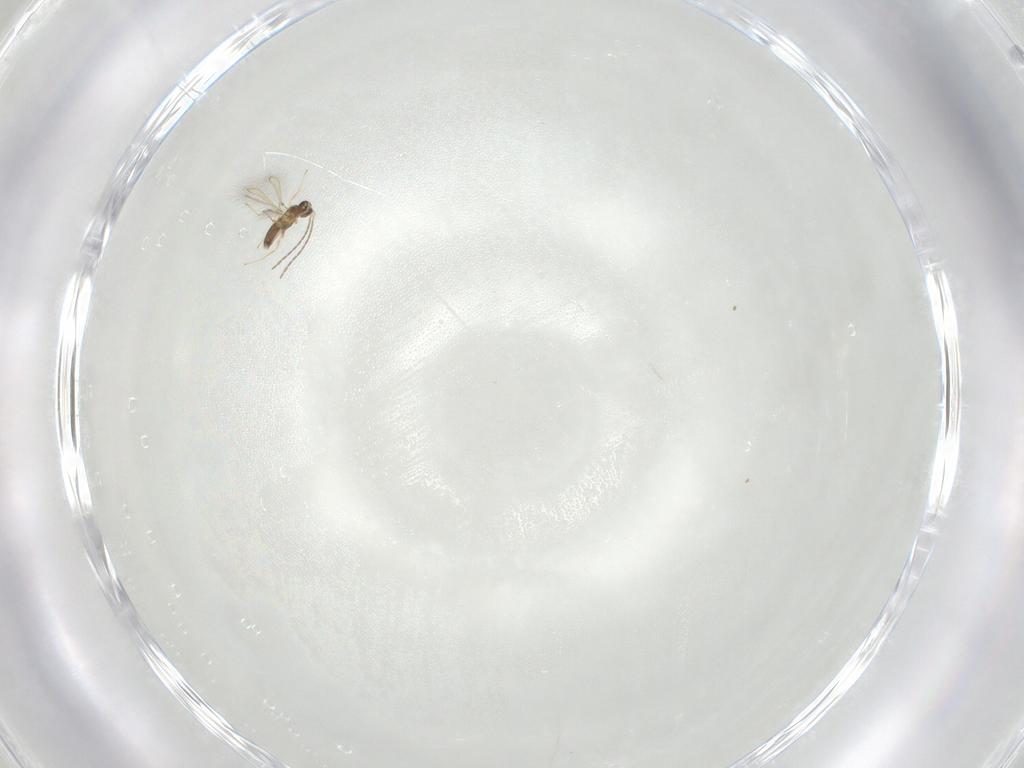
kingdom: Animalia
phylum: Arthropoda
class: Insecta
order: Hymenoptera
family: Mymaridae
